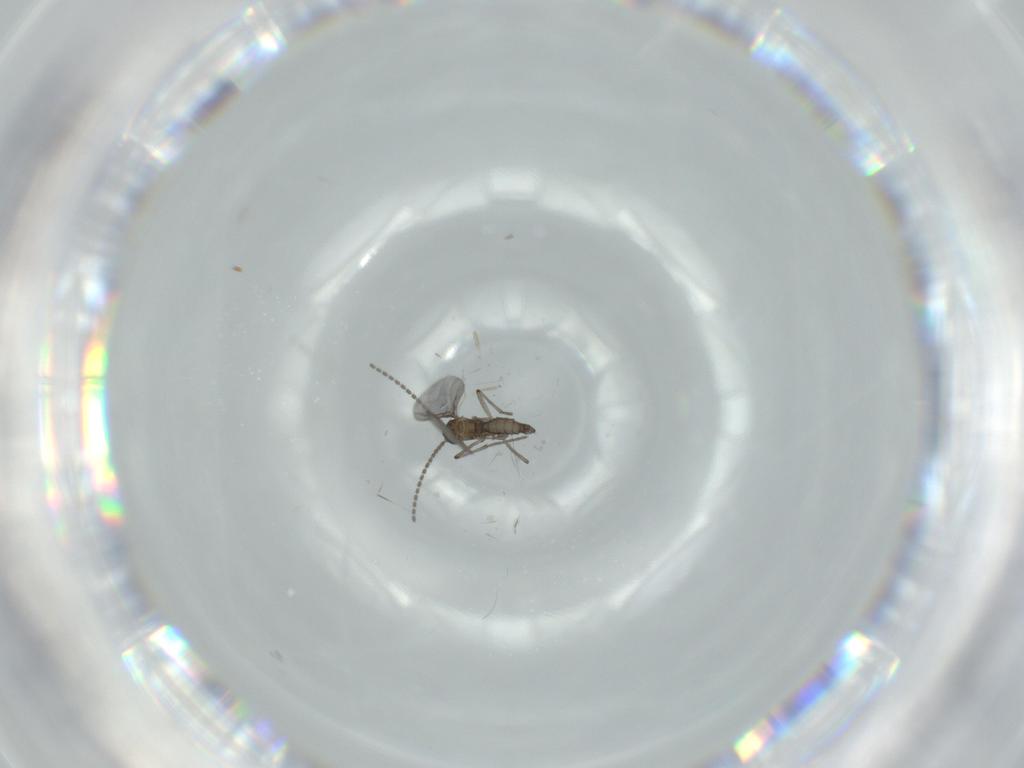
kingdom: Animalia
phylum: Arthropoda
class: Insecta
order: Diptera
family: Sciaridae
